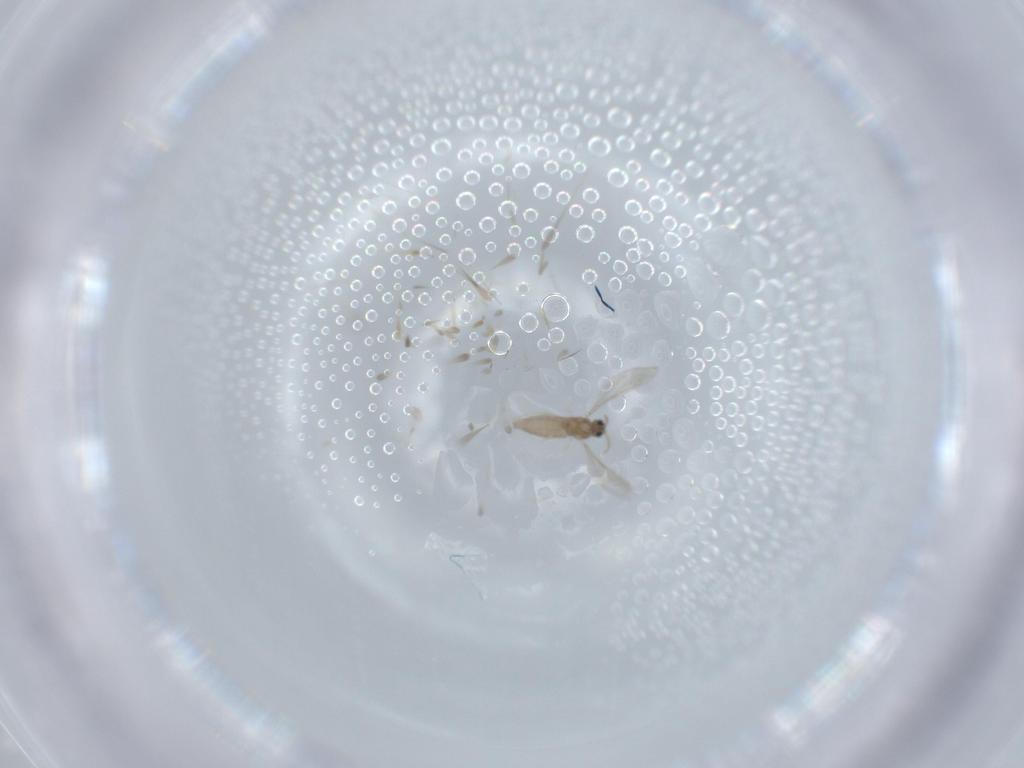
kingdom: Animalia
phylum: Arthropoda
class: Insecta
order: Diptera
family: Cecidomyiidae
